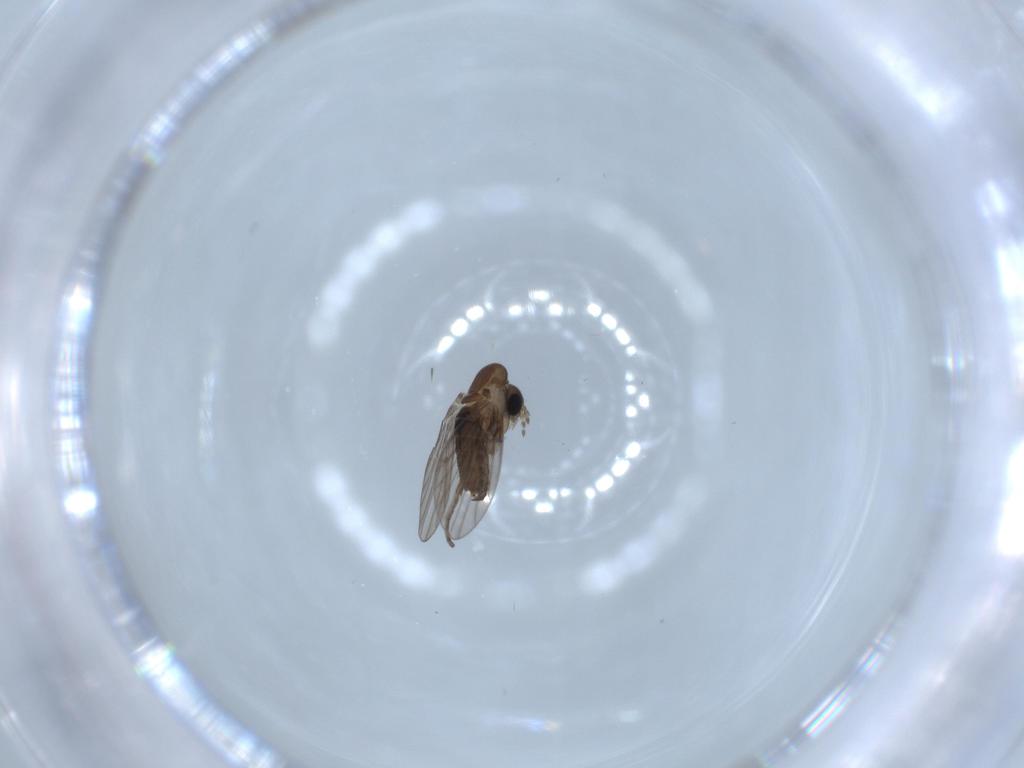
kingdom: Animalia
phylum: Arthropoda
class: Insecta
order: Diptera
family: Psychodidae
